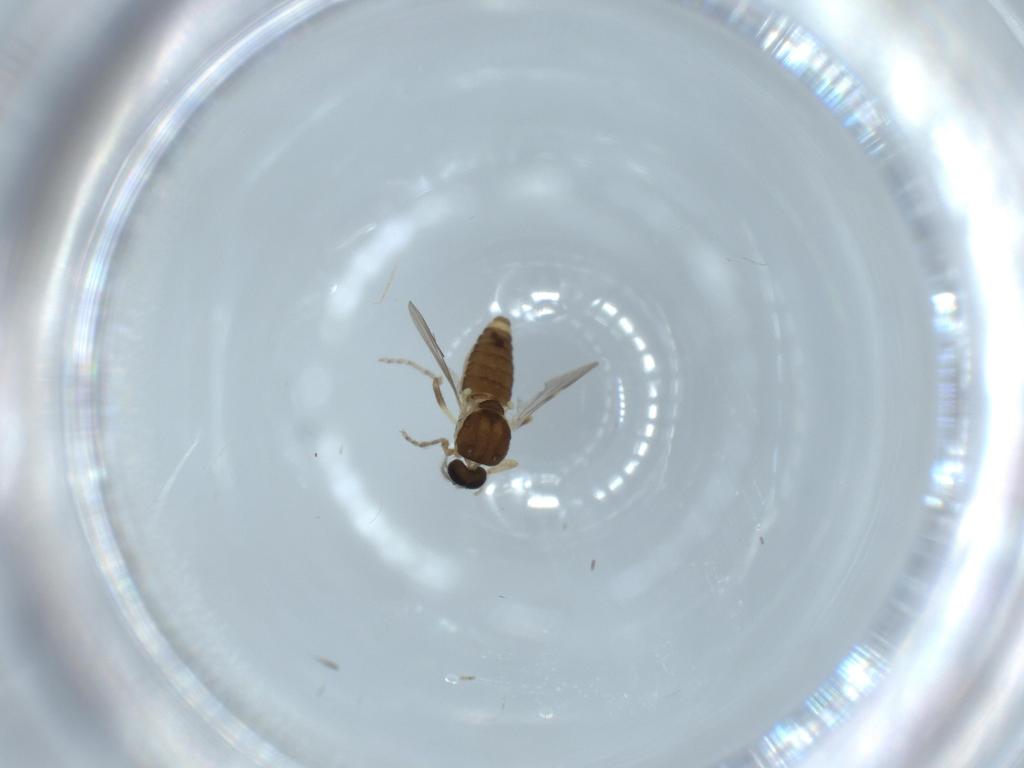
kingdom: Animalia
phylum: Arthropoda
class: Insecta
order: Diptera
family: Ceratopogonidae
